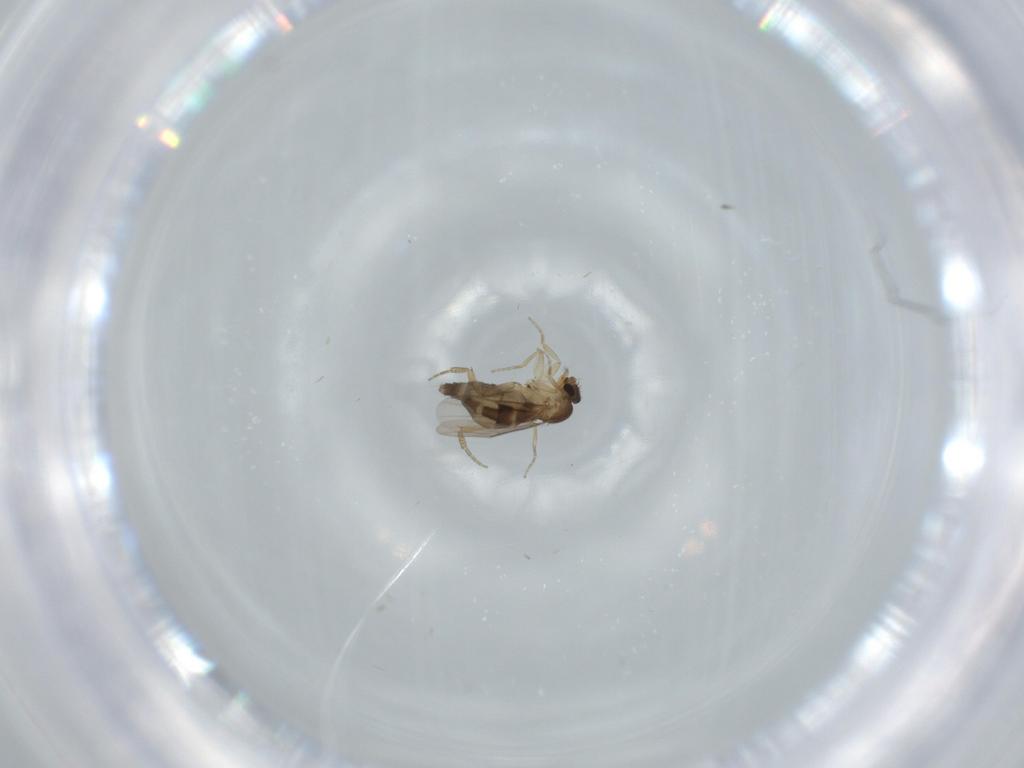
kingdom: Animalia
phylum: Arthropoda
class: Insecta
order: Diptera
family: Phoridae
